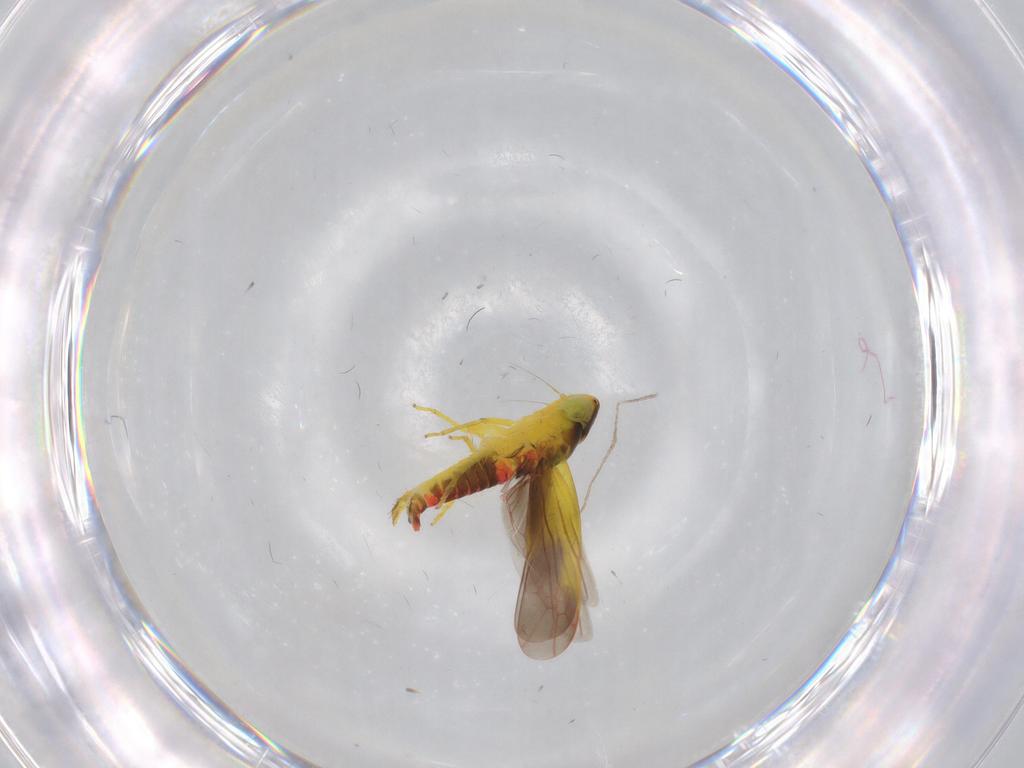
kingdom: Animalia
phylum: Arthropoda
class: Insecta
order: Hemiptera
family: Cicadellidae
